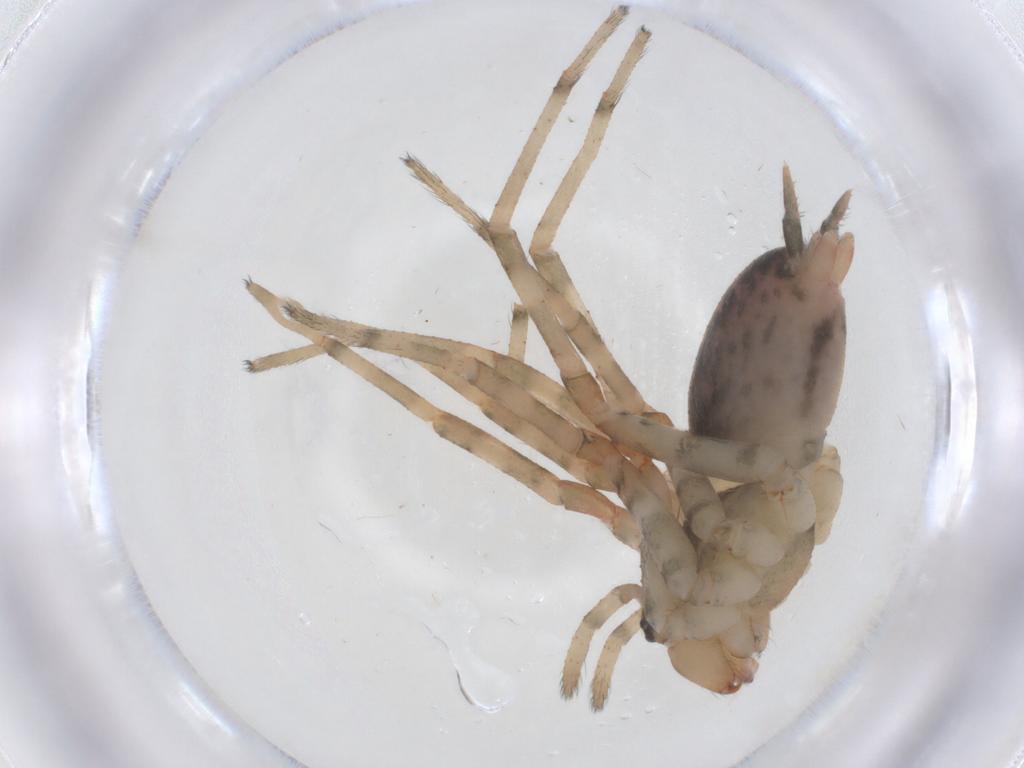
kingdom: Animalia
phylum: Arthropoda
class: Arachnida
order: Araneae
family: Agelenidae
